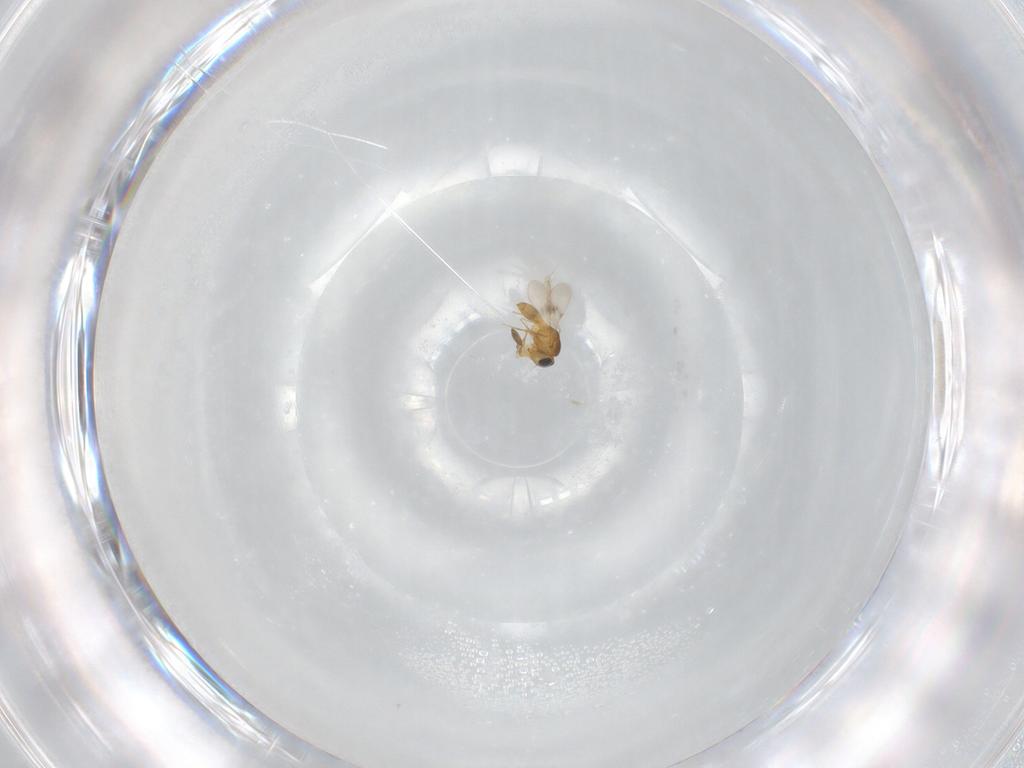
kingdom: Animalia
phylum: Arthropoda
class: Insecta
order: Hymenoptera
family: Scelionidae
